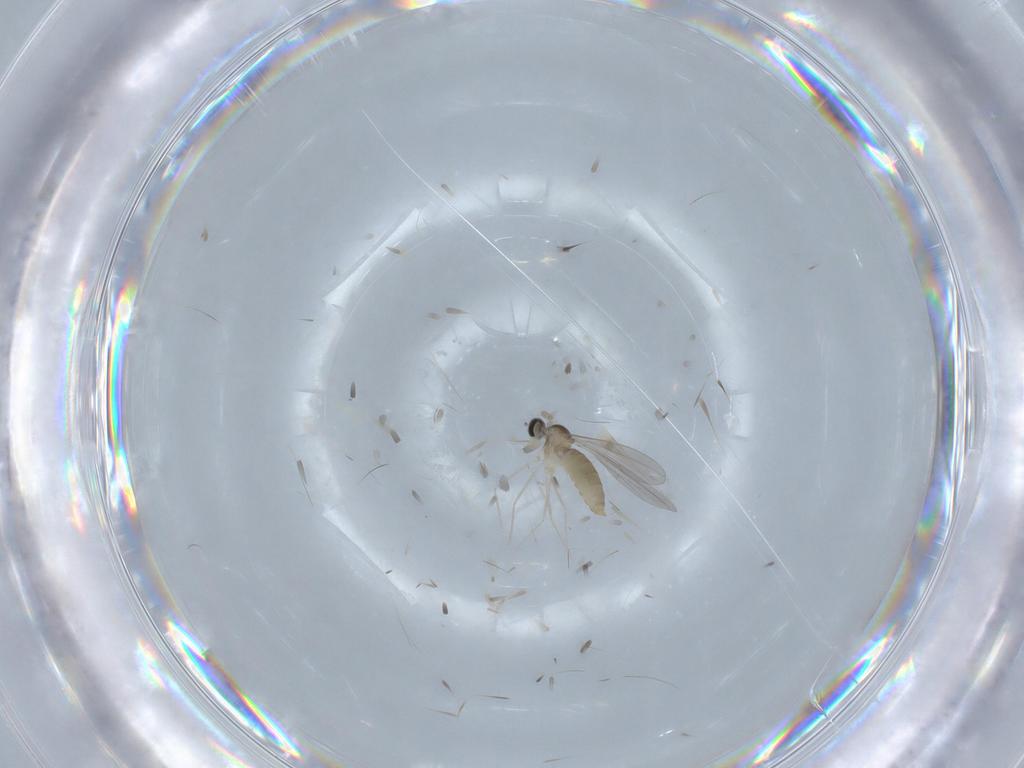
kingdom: Animalia
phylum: Arthropoda
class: Insecta
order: Diptera
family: Cecidomyiidae
